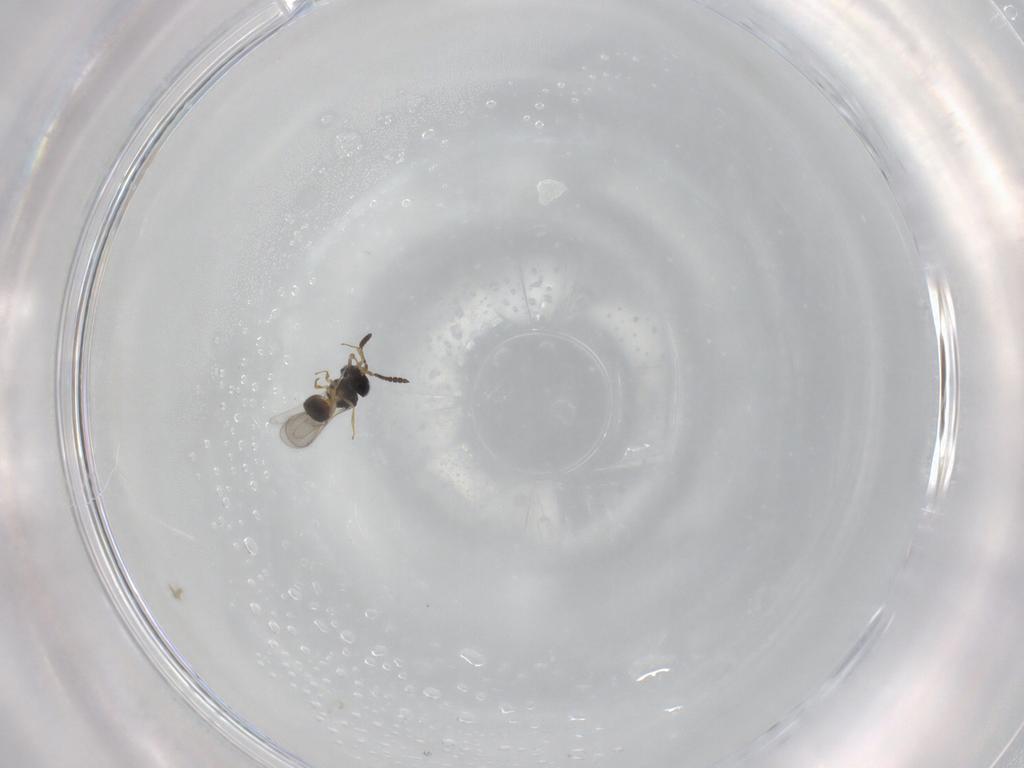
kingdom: Animalia
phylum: Arthropoda
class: Insecta
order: Hymenoptera
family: Scelionidae
